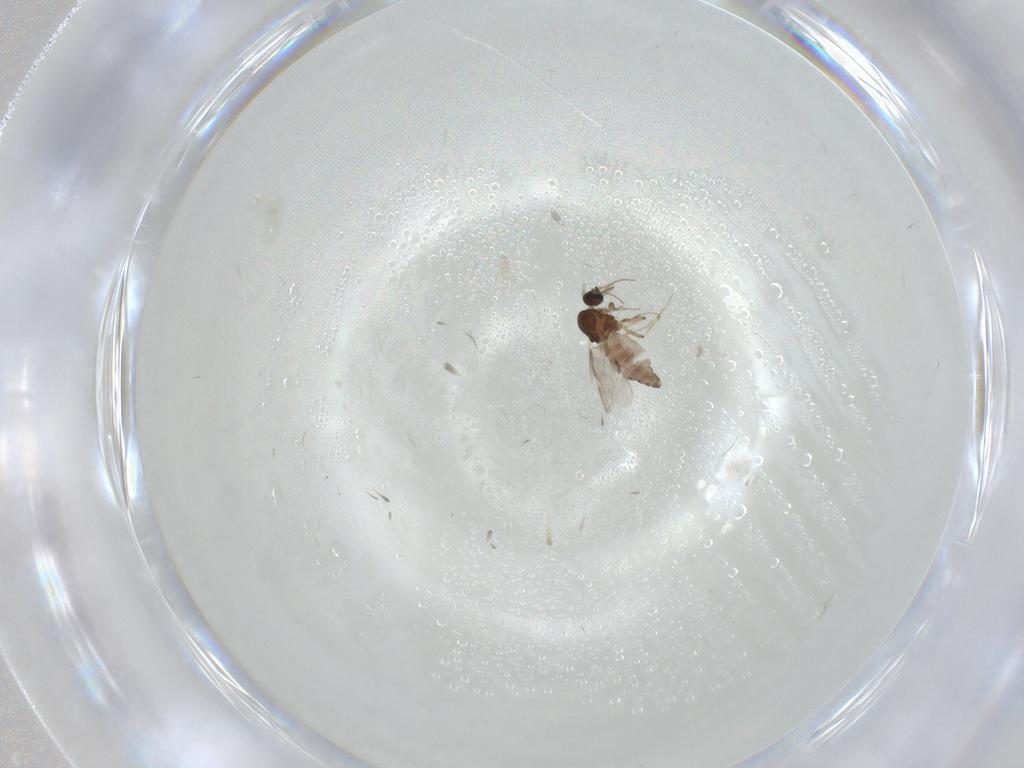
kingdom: Animalia
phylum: Arthropoda
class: Insecta
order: Diptera
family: Cecidomyiidae
